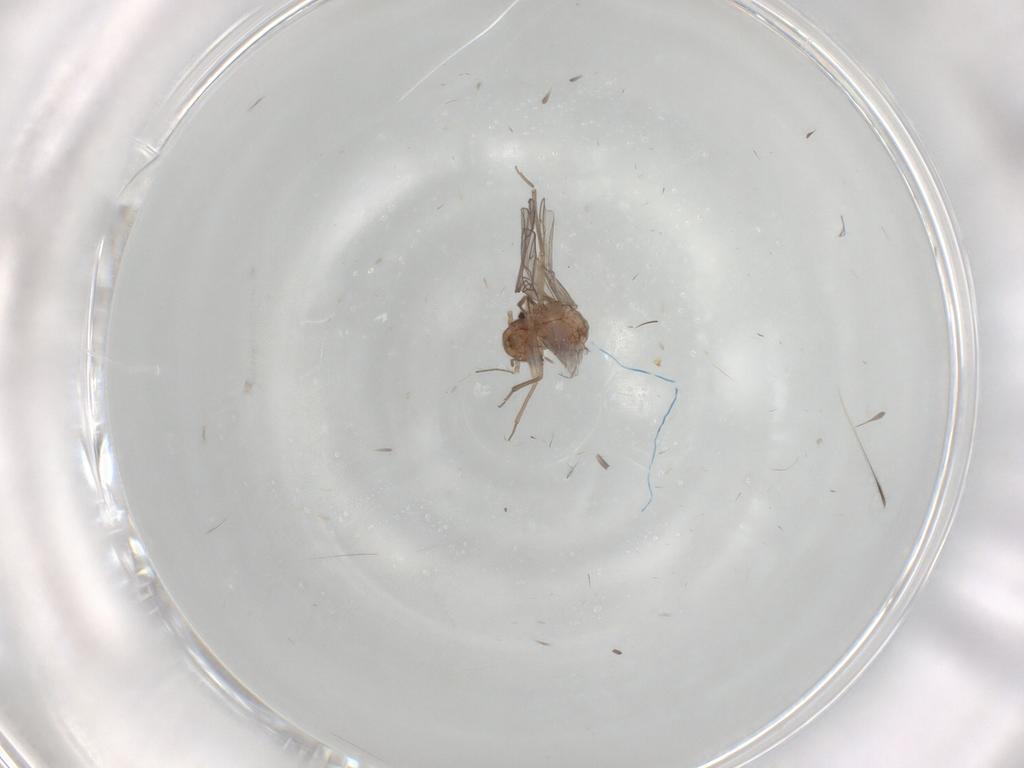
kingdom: Animalia
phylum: Arthropoda
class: Insecta
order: Psocodea
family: Lachesillidae
